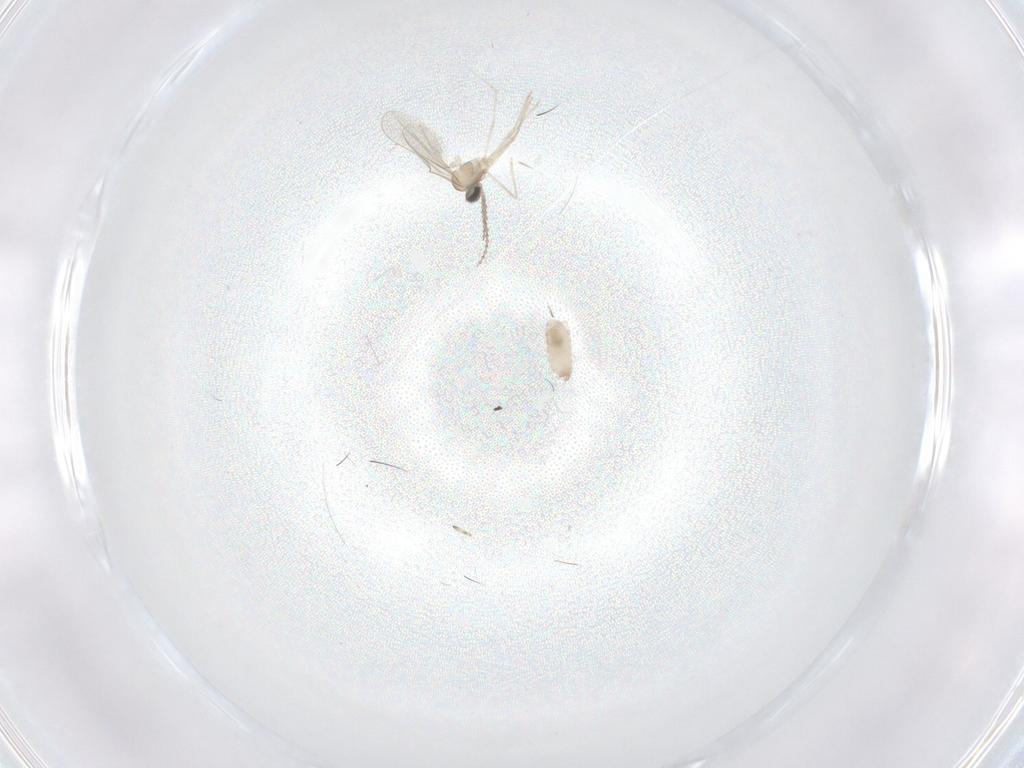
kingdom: Animalia
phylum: Arthropoda
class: Insecta
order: Diptera
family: Cecidomyiidae
